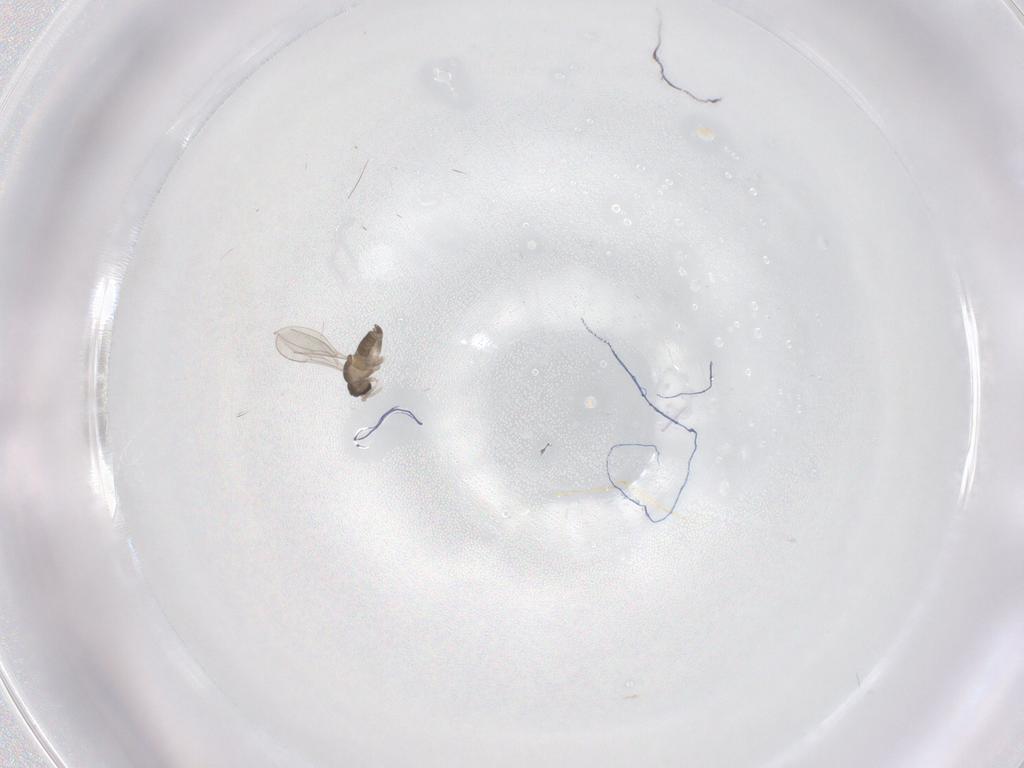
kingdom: Animalia
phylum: Arthropoda
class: Insecta
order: Diptera
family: Cecidomyiidae
